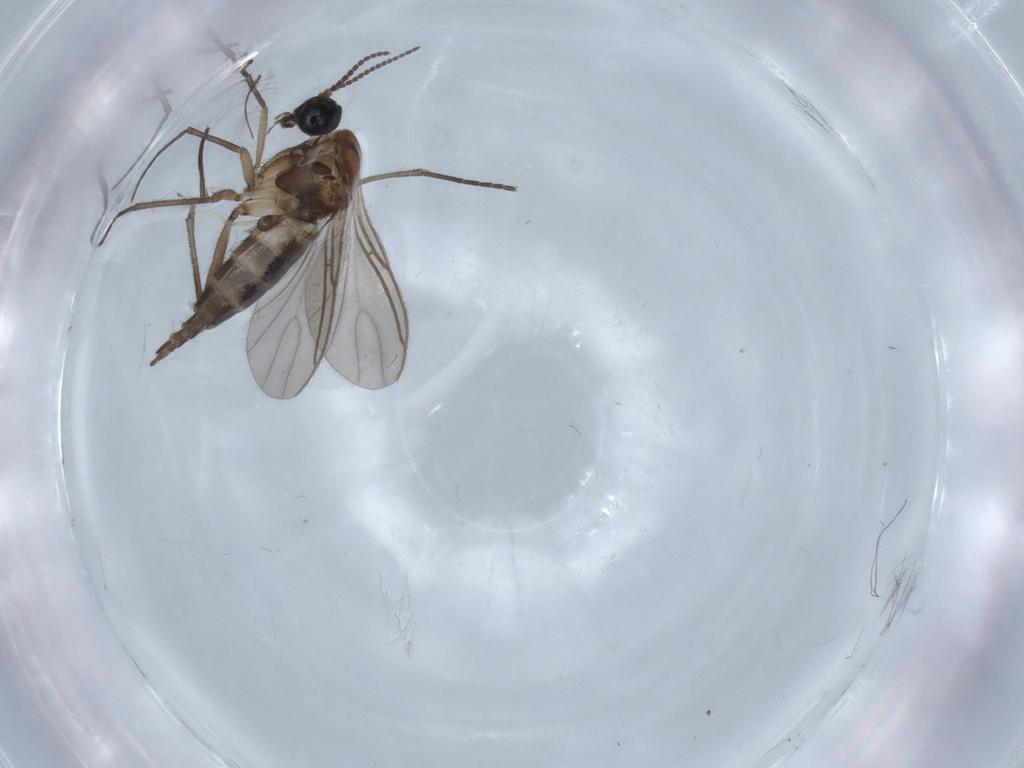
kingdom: Animalia
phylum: Arthropoda
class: Insecta
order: Diptera
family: Sciaridae
